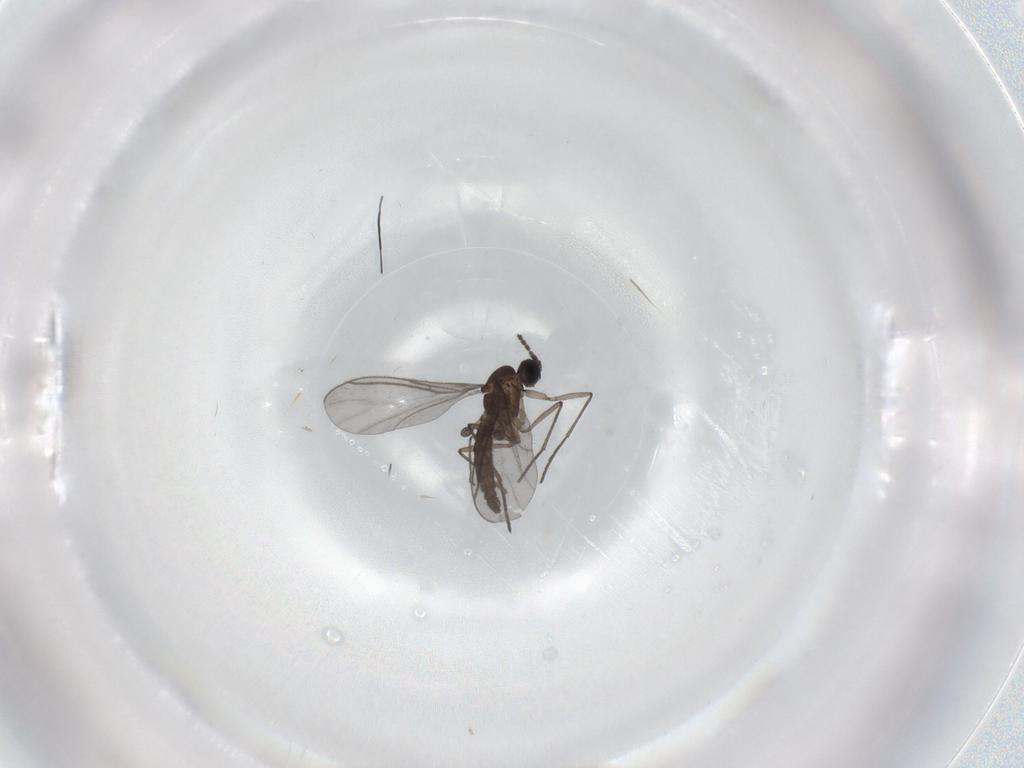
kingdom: Animalia
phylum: Arthropoda
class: Insecta
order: Diptera
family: Chironomidae
